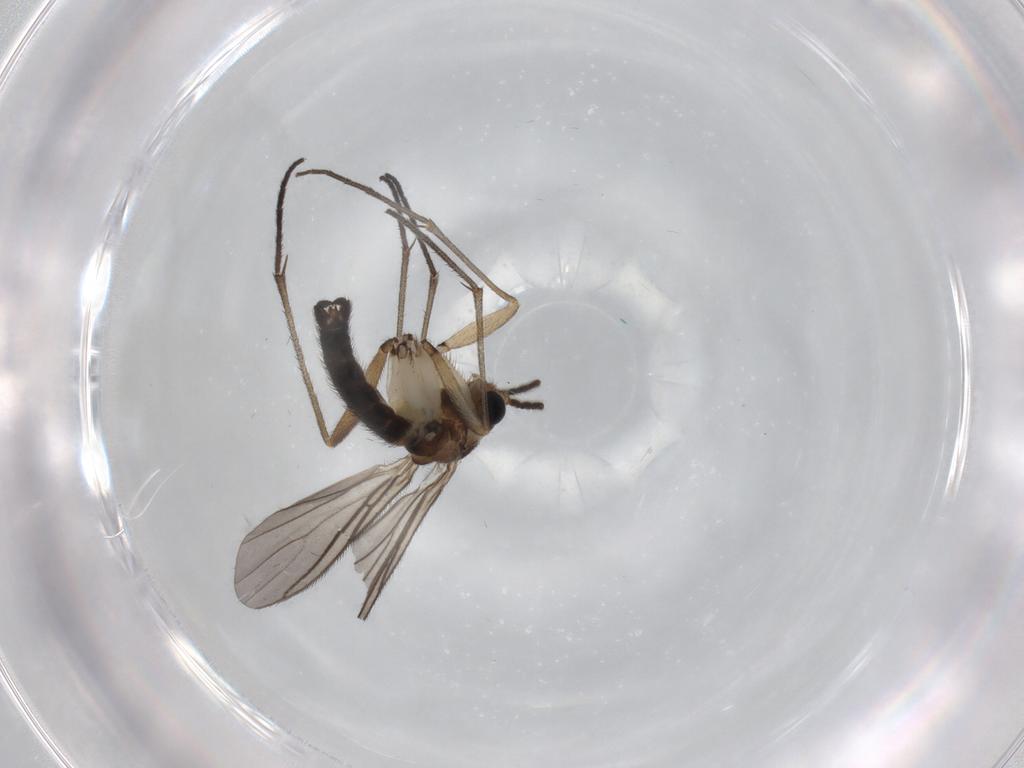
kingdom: Animalia
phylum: Arthropoda
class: Insecta
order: Diptera
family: Sciaridae
